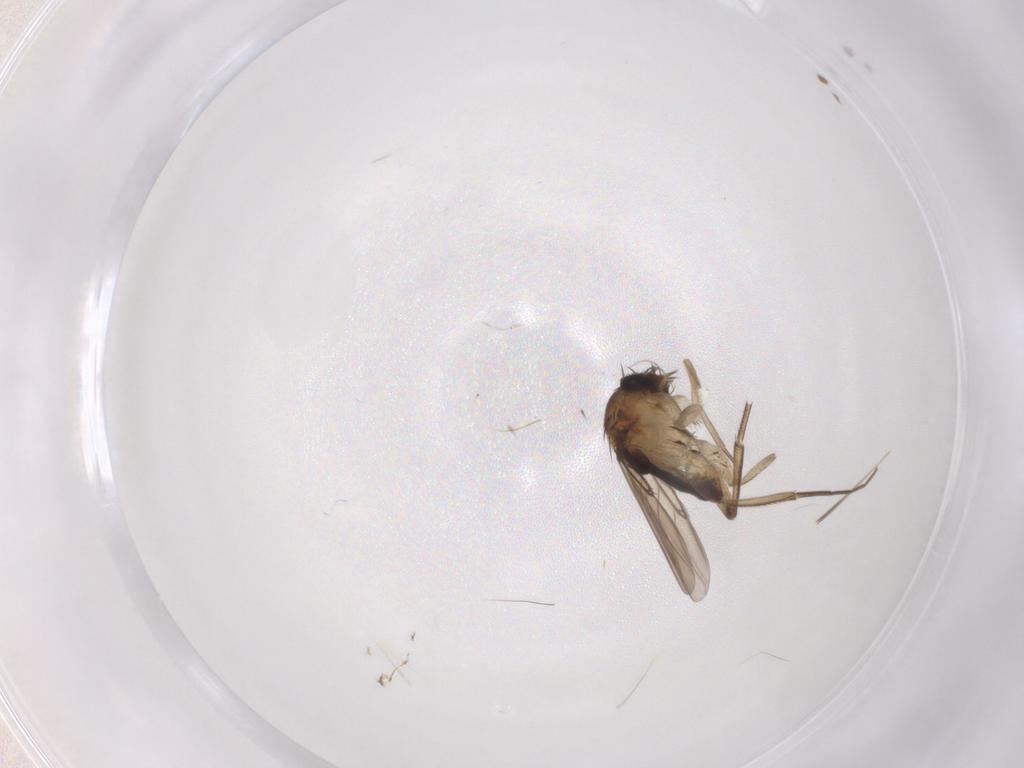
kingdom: Animalia
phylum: Arthropoda
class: Insecta
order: Diptera
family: Phoridae
